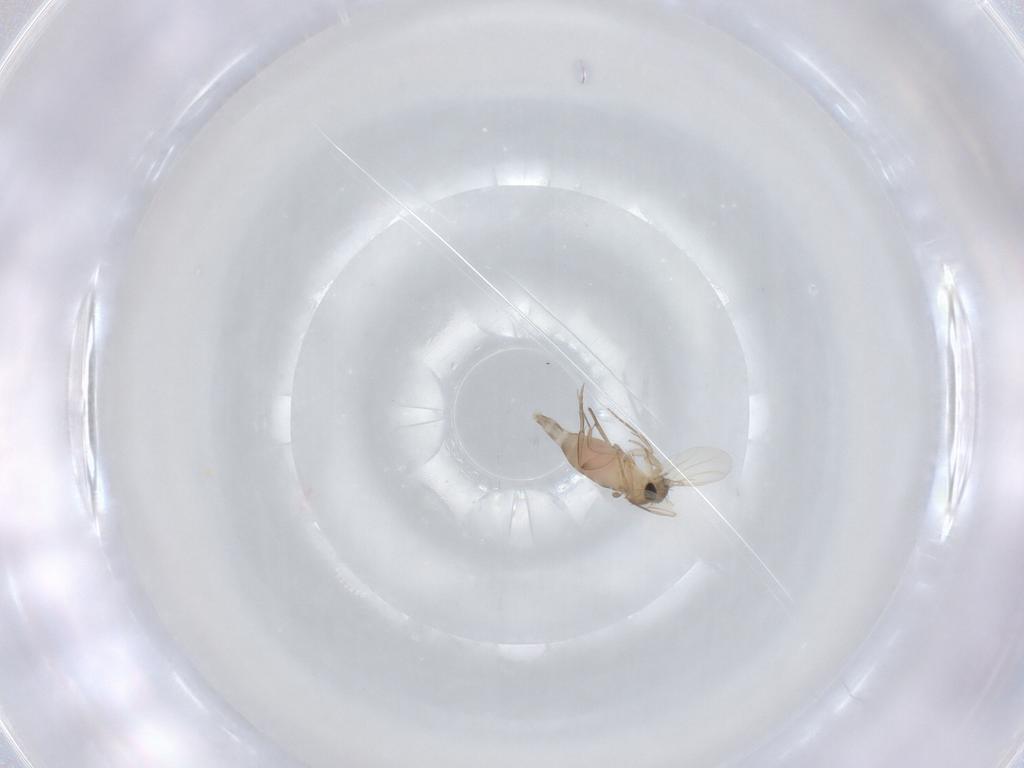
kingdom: Animalia
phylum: Arthropoda
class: Insecta
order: Diptera
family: Phoridae
